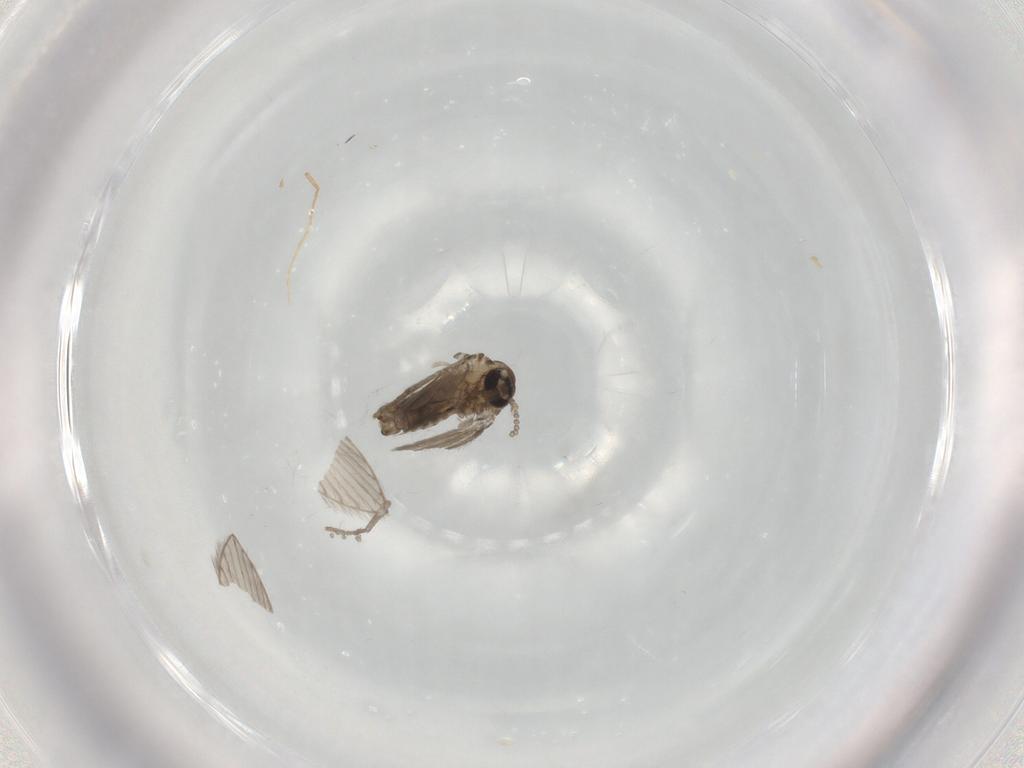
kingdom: Animalia
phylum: Arthropoda
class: Insecta
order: Diptera
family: Psychodidae
